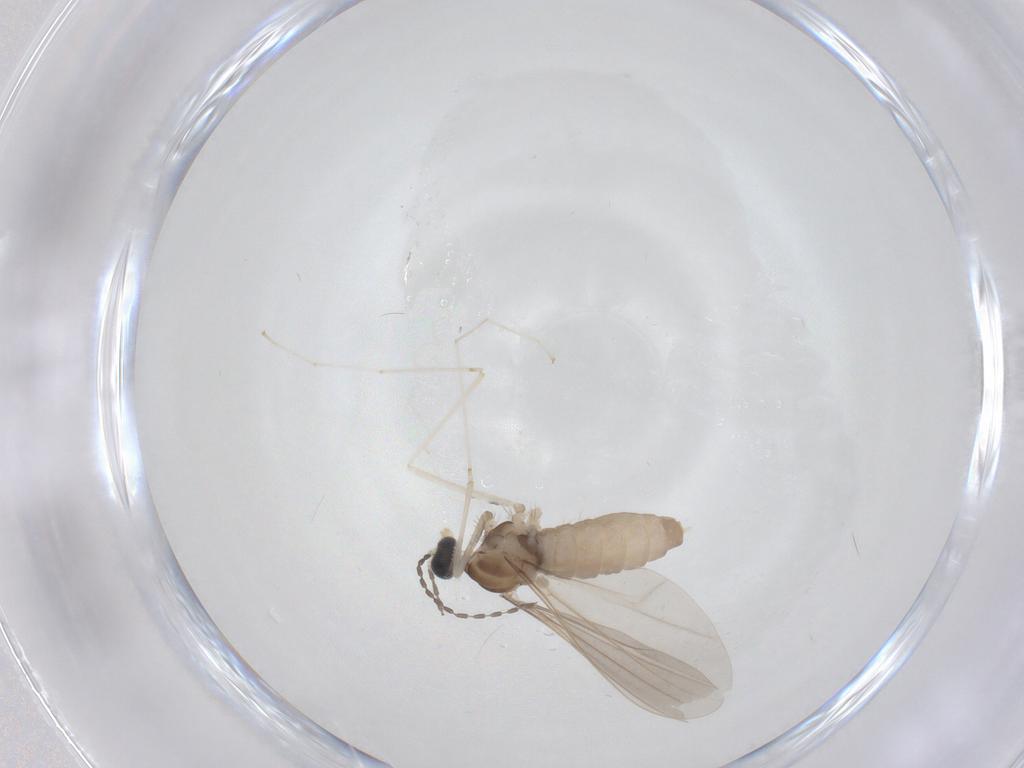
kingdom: Animalia
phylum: Arthropoda
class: Insecta
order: Diptera
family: Cecidomyiidae
